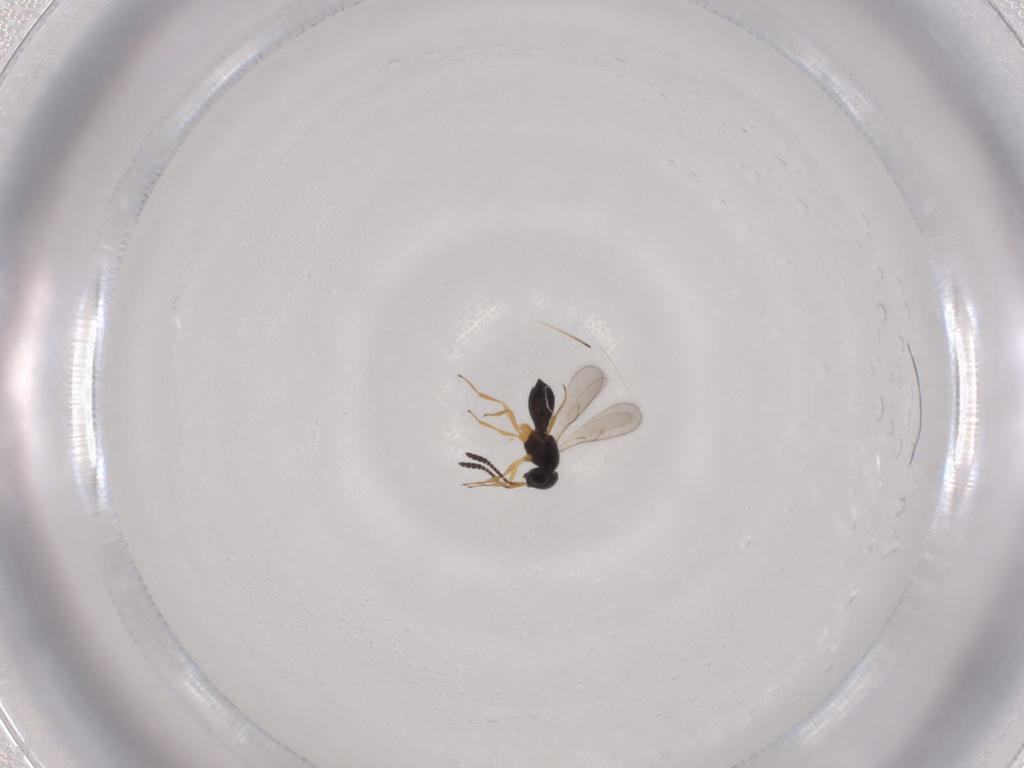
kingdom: Animalia
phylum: Arthropoda
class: Insecta
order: Hymenoptera
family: Scelionidae
